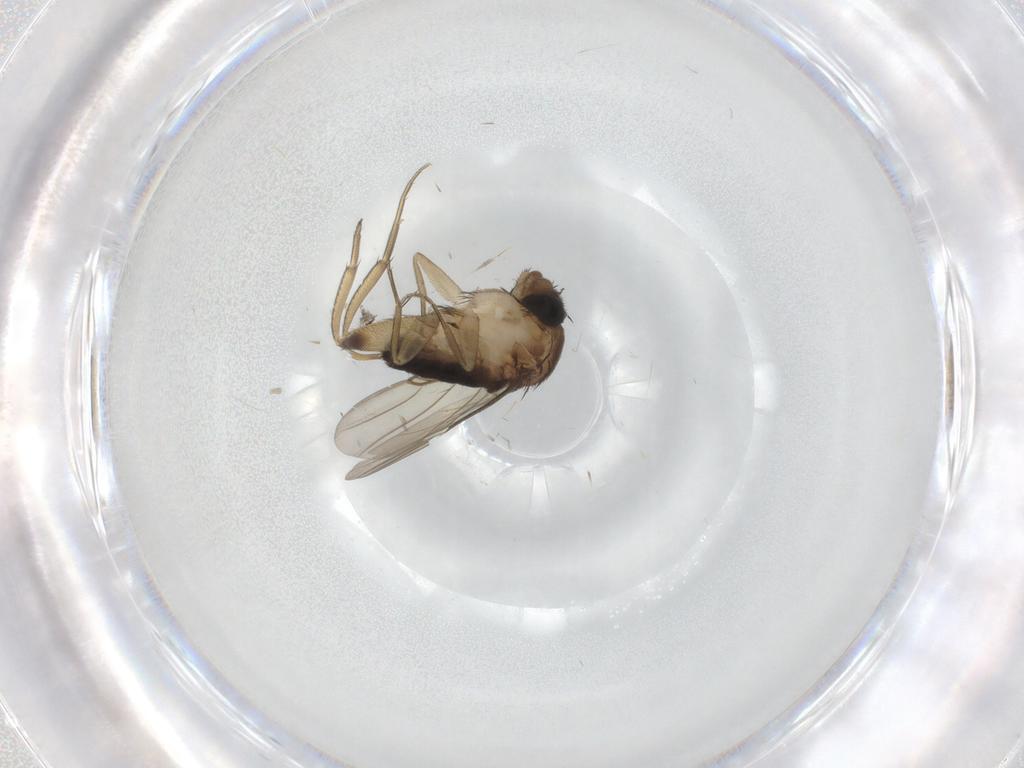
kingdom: Animalia
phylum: Arthropoda
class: Insecta
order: Diptera
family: Phoridae
